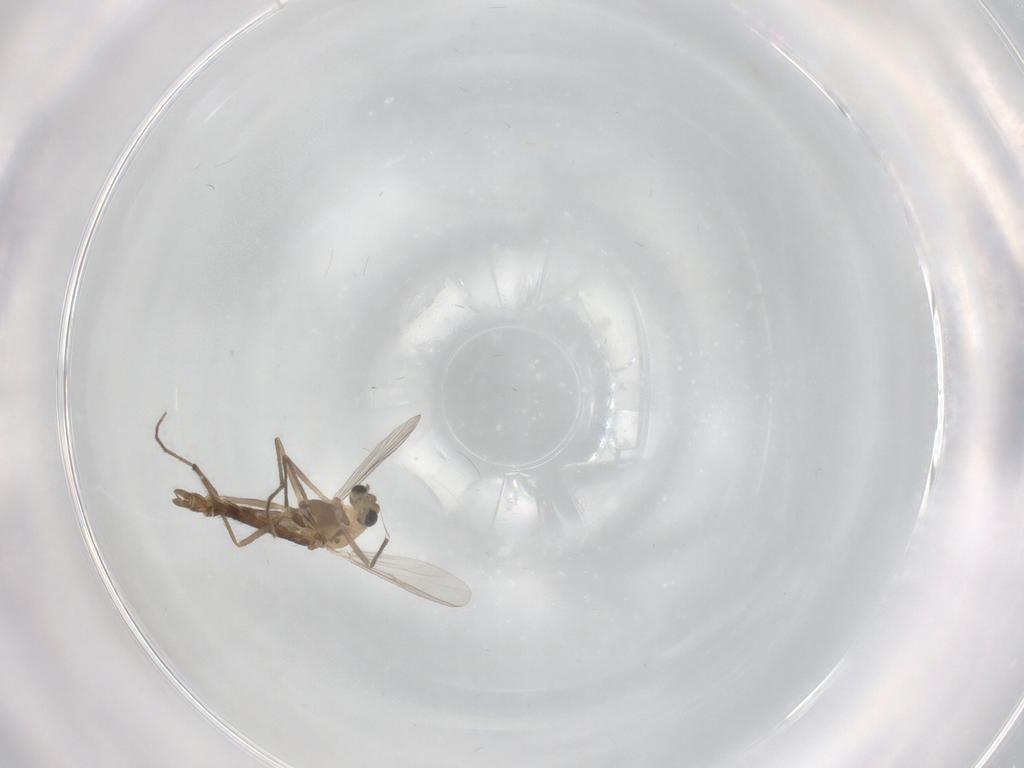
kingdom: Animalia
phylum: Arthropoda
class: Insecta
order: Diptera
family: Chironomidae
